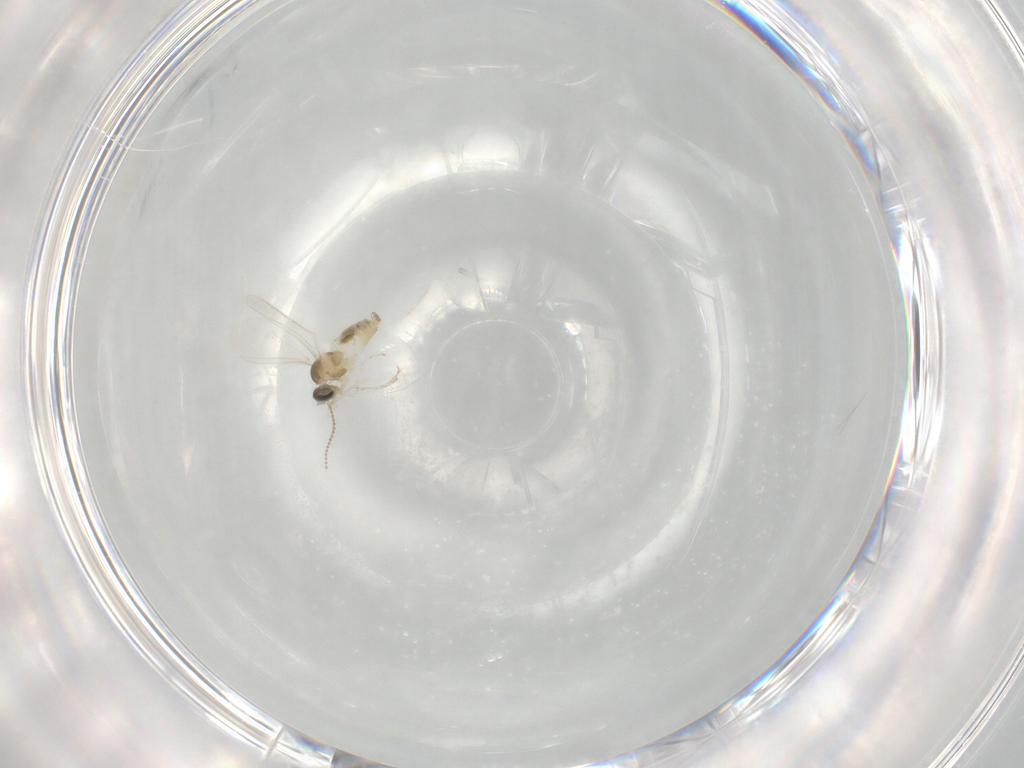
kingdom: Animalia
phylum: Arthropoda
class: Insecta
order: Diptera
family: Cecidomyiidae
